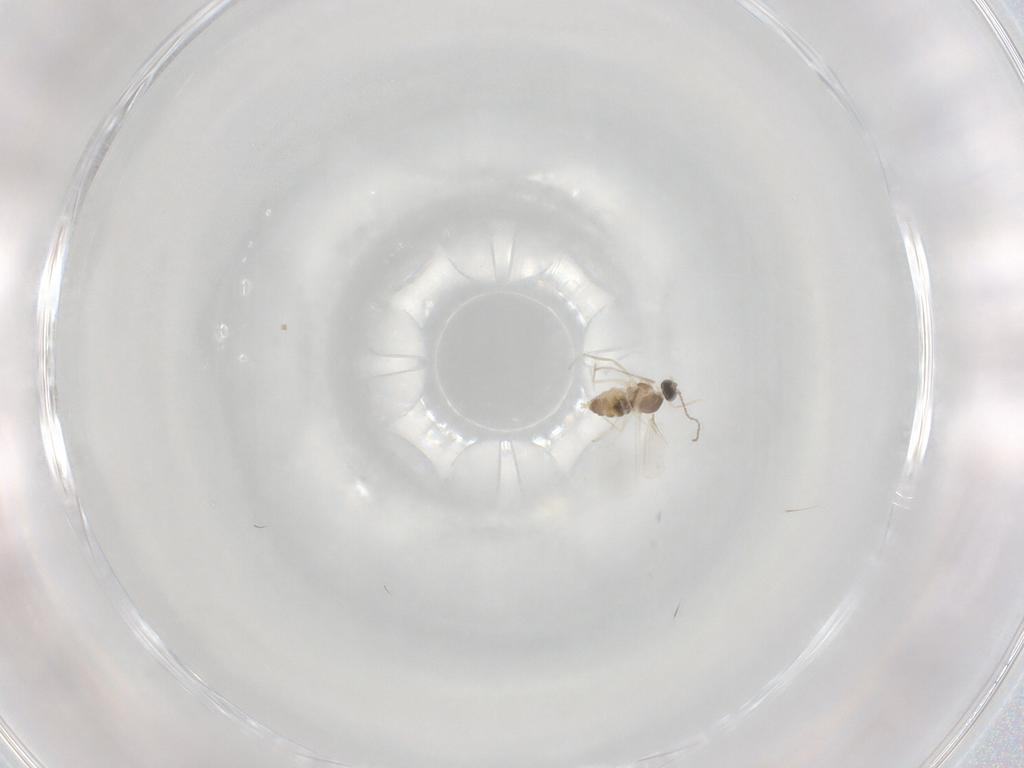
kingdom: Animalia
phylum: Arthropoda
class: Insecta
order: Diptera
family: Cecidomyiidae
